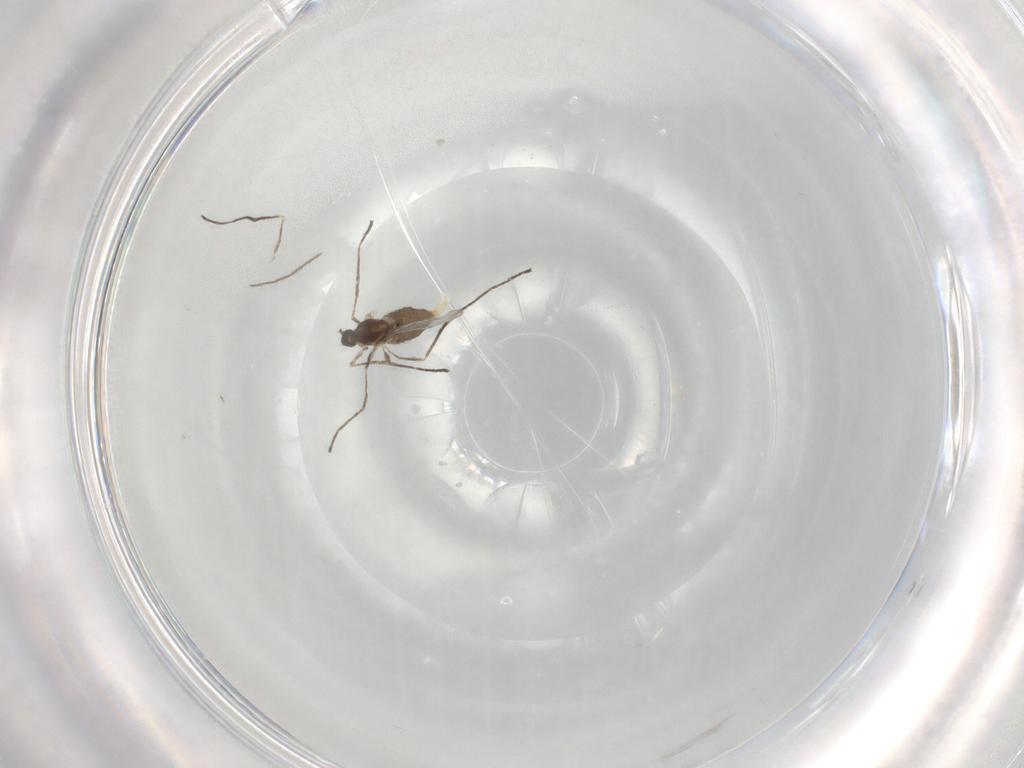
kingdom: Animalia
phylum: Arthropoda
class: Insecta
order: Diptera
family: Cecidomyiidae
